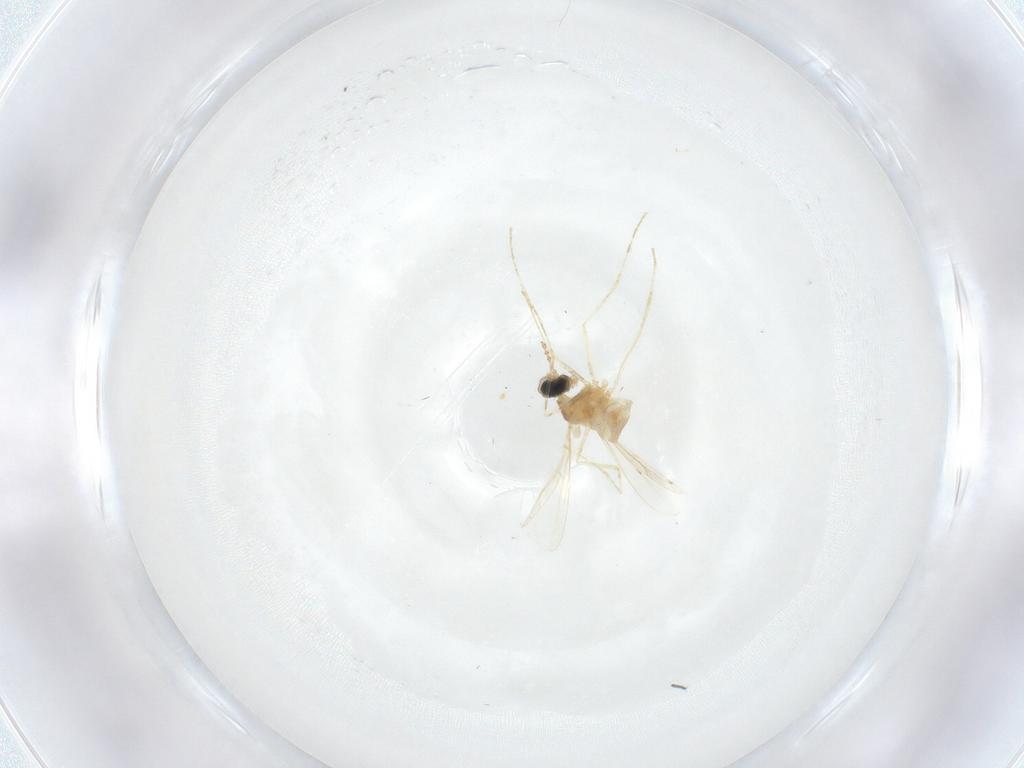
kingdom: Animalia
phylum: Arthropoda
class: Insecta
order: Diptera
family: Cecidomyiidae
